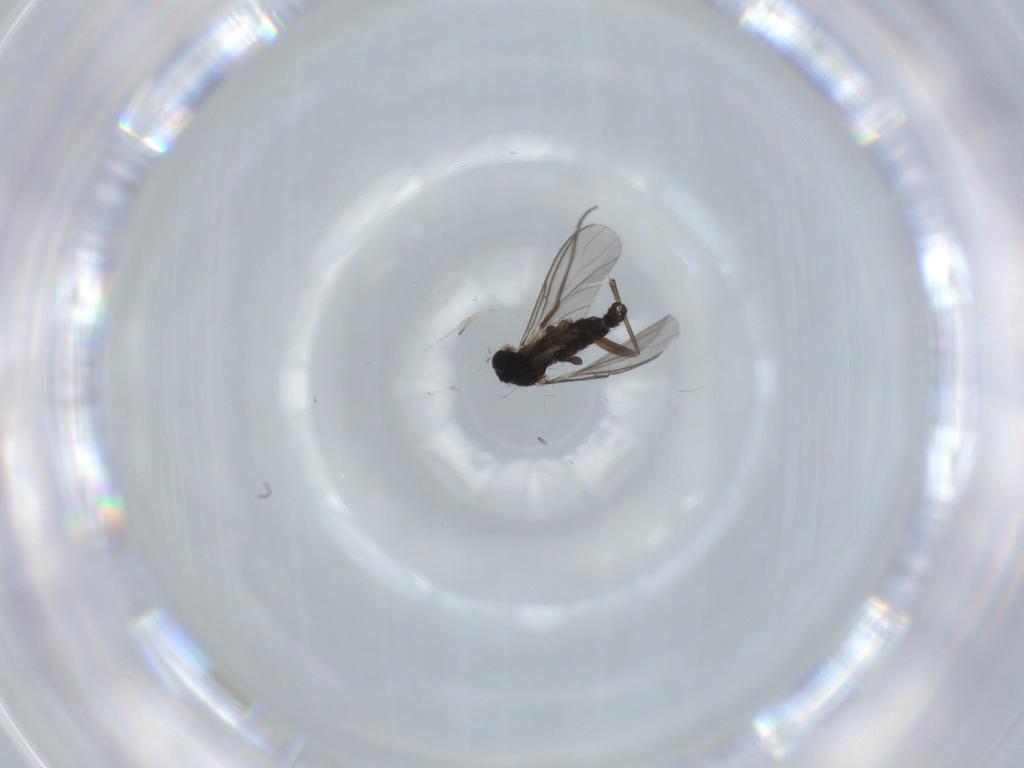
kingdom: Animalia
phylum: Arthropoda
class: Insecta
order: Diptera
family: Sciaridae
